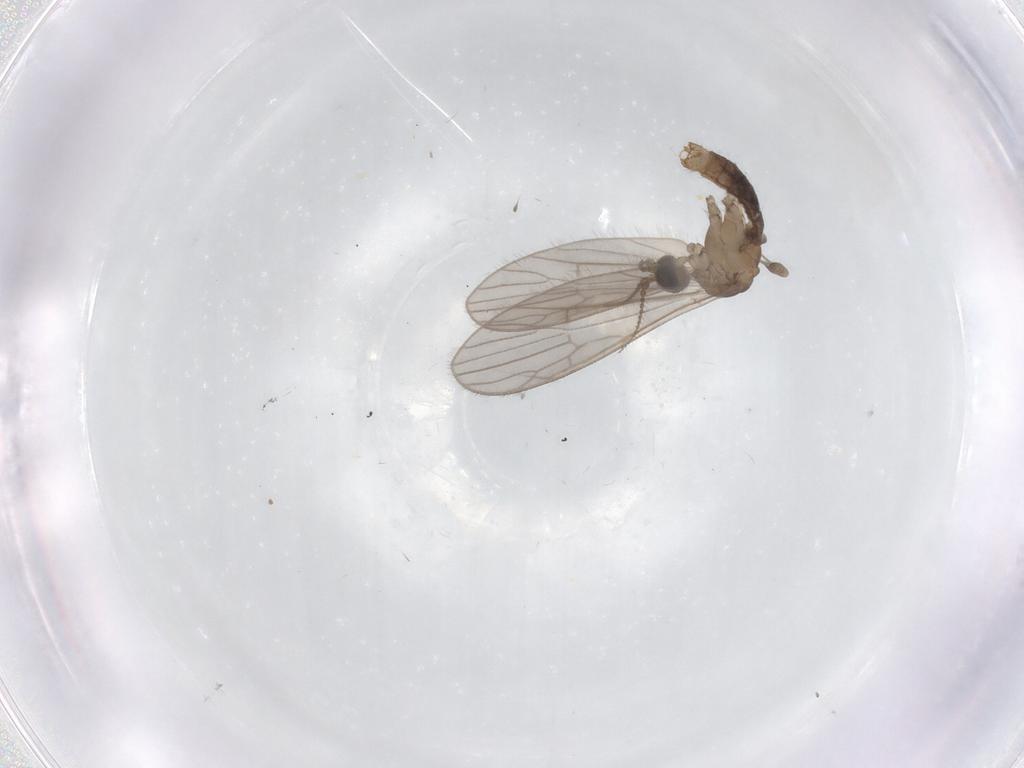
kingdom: Animalia
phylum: Arthropoda
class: Insecta
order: Diptera
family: Limoniidae
